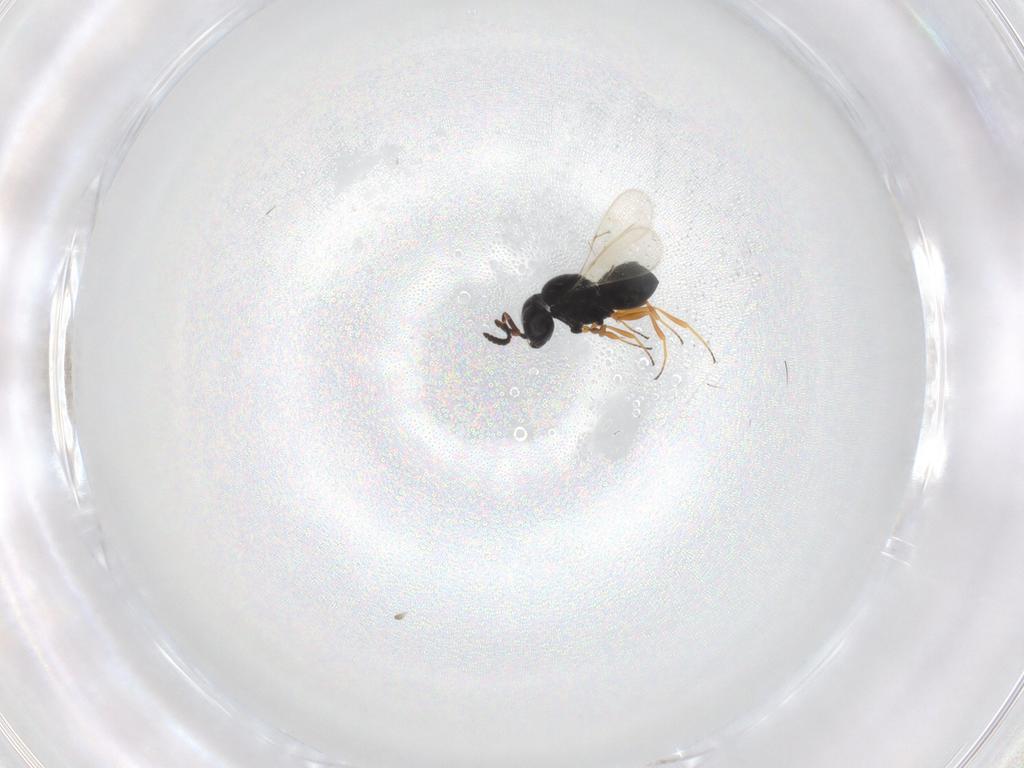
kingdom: Animalia
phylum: Arthropoda
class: Insecta
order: Hymenoptera
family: Scelionidae
